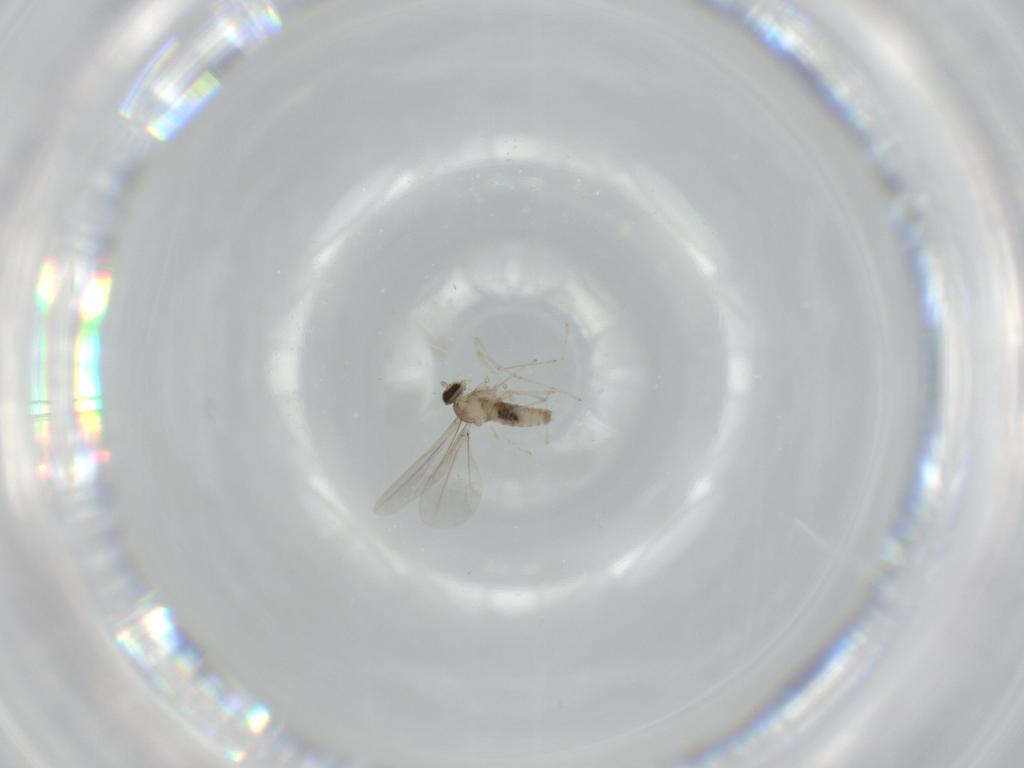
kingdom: Animalia
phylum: Arthropoda
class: Insecta
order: Diptera
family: Cecidomyiidae
